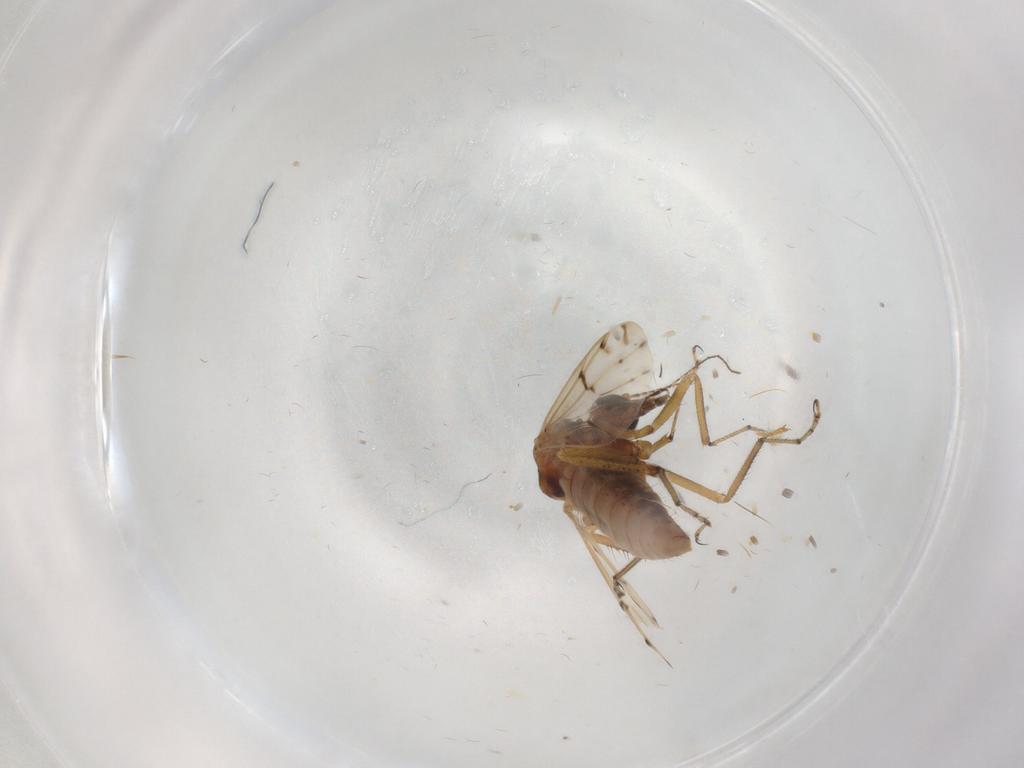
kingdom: Animalia
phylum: Arthropoda
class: Insecta
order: Diptera
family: Chironomidae
